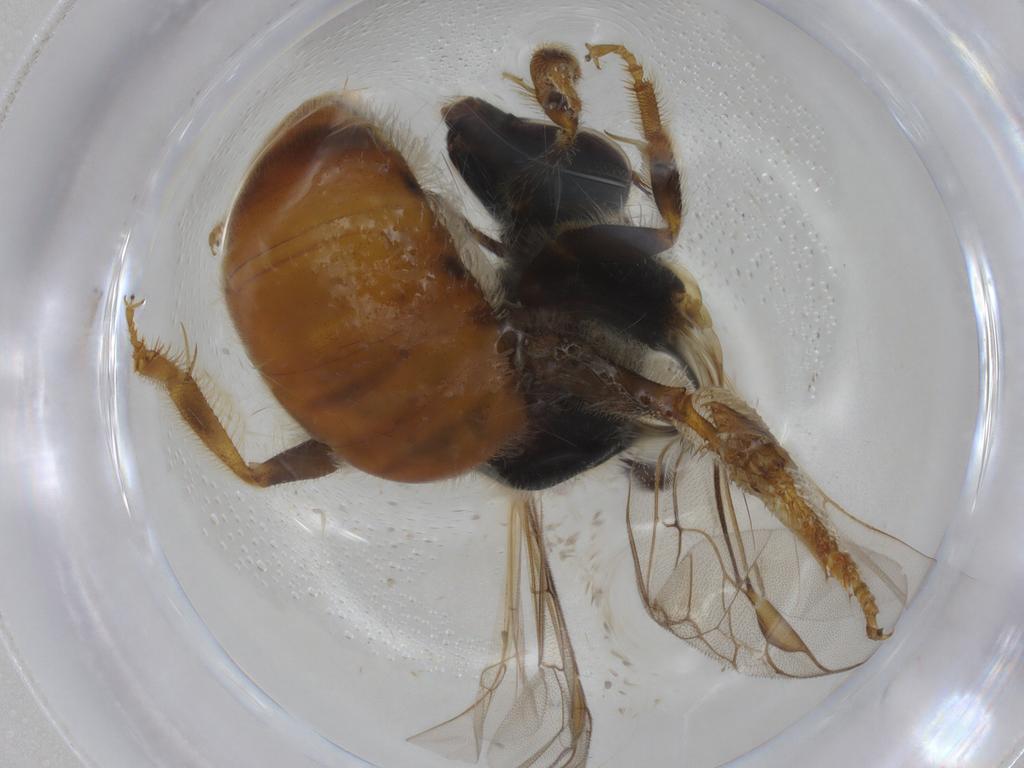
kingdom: Animalia
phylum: Arthropoda
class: Insecta
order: Hymenoptera
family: Halictidae
